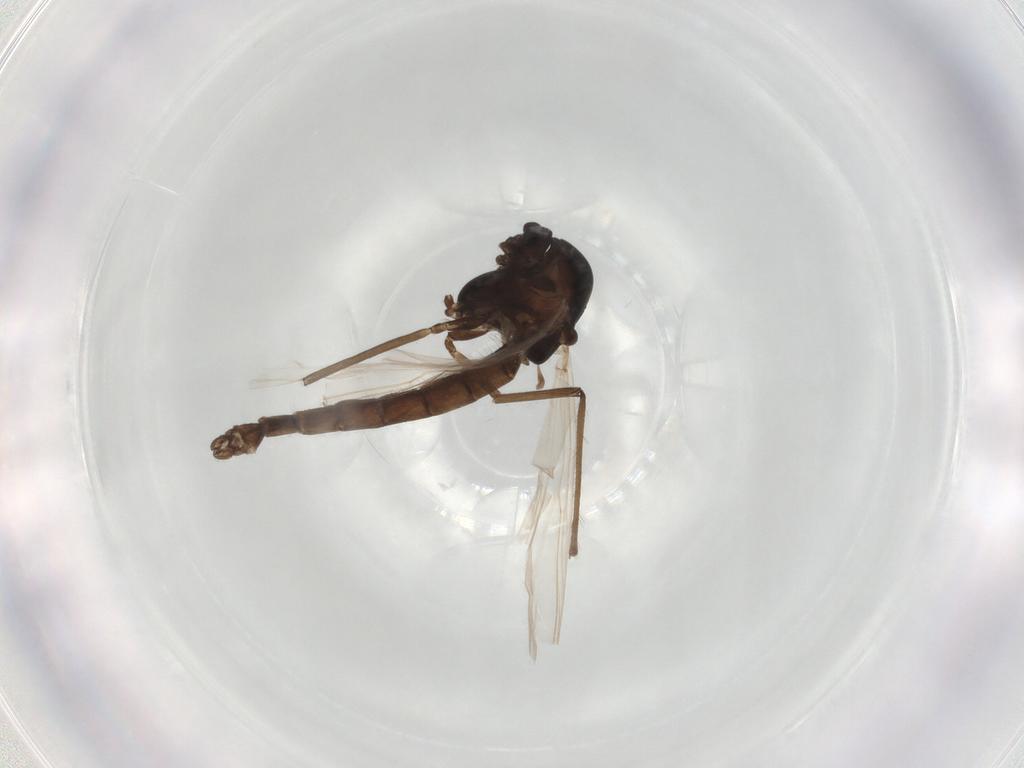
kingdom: Animalia
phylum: Arthropoda
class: Insecta
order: Diptera
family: Muscidae
